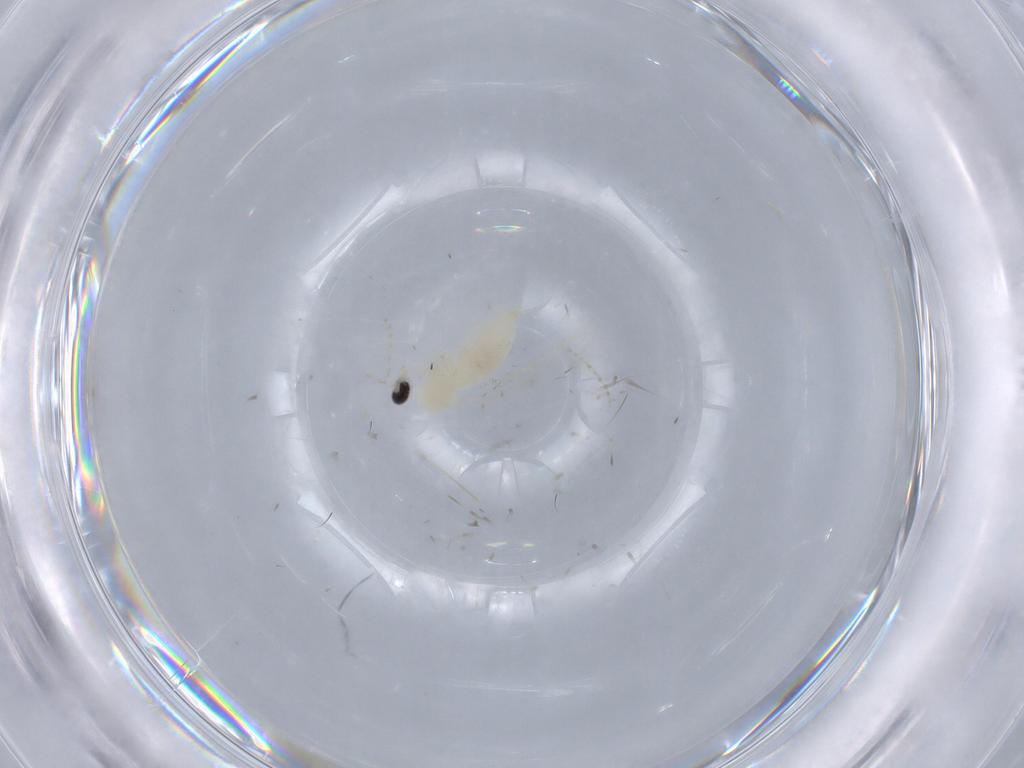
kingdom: Animalia
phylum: Arthropoda
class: Insecta
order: Diptera
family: Cecidomyiidae
